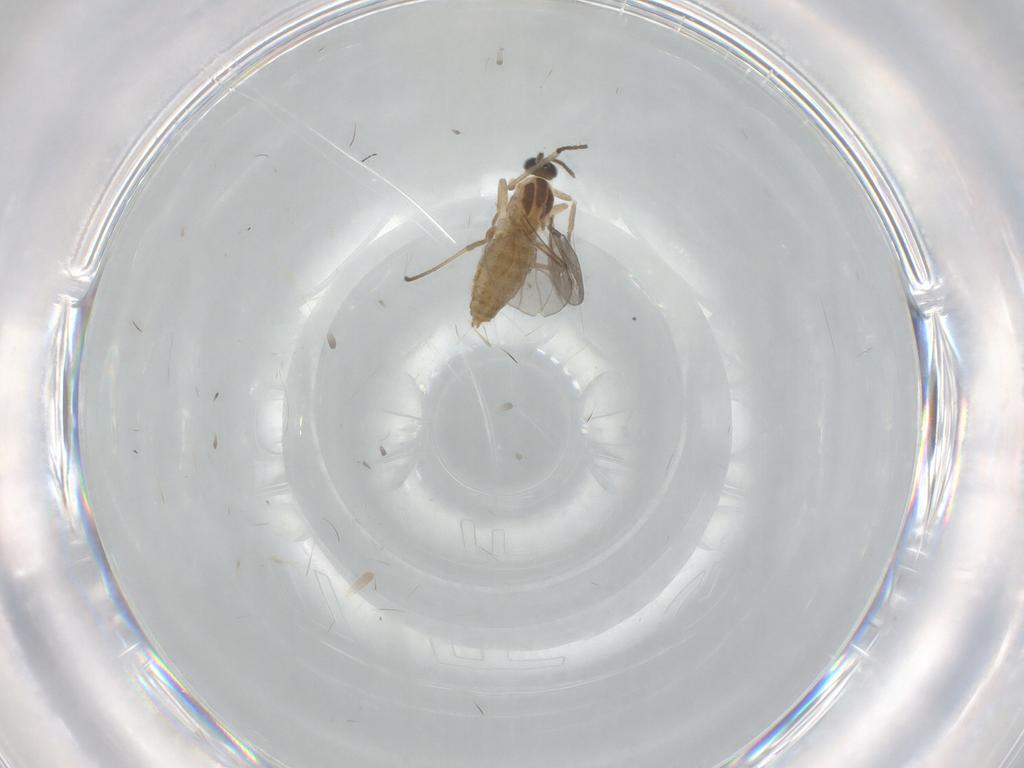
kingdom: Animalia
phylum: Arthropoda
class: Insecta
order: Diptera
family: Cecidomyiidae
